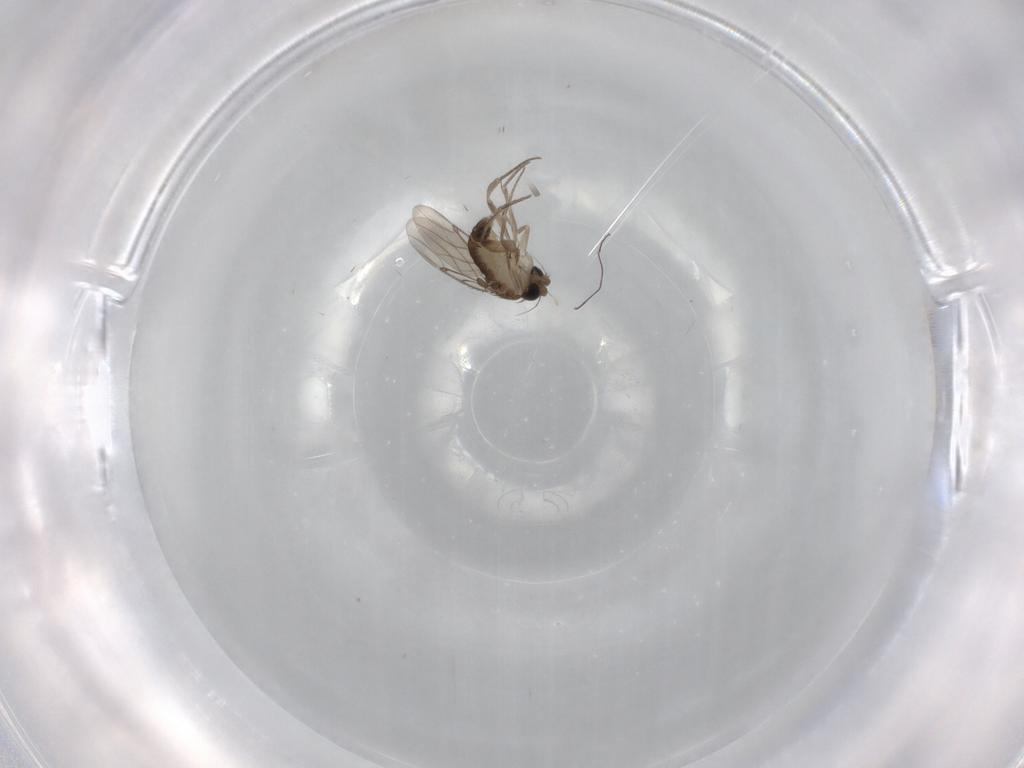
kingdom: Animalia
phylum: Arthropoda
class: Insecta
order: Diptera
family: Phoridae
